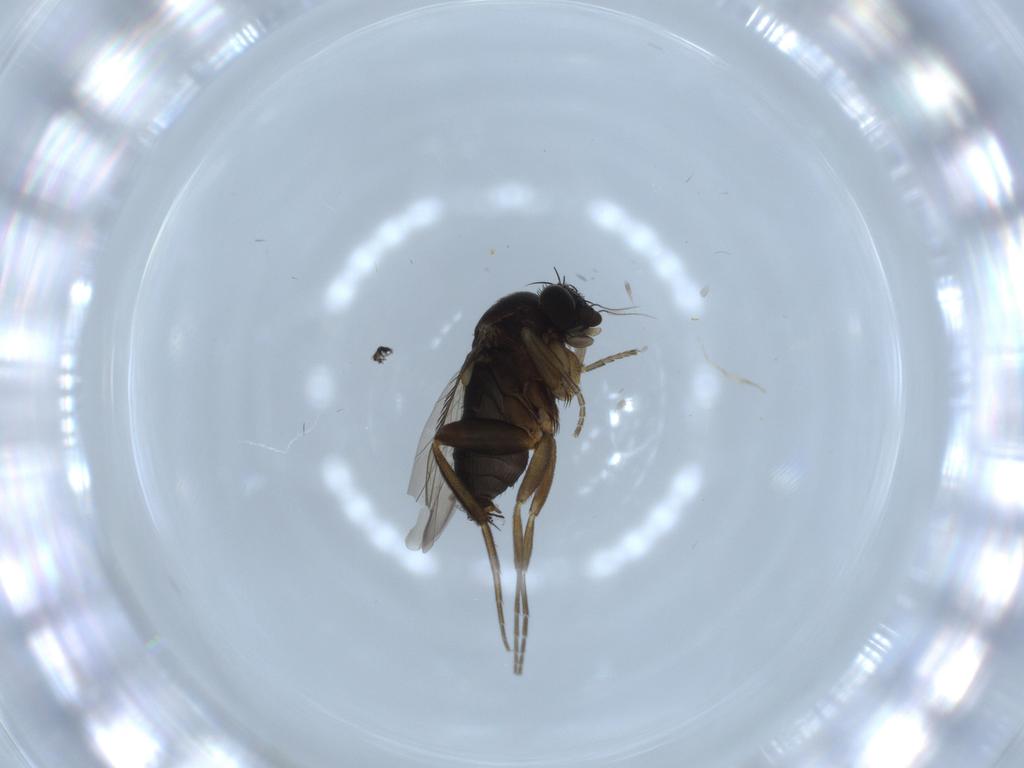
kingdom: Animalia
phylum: Arthropoda
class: Insecta
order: Diptera
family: Phoridae
